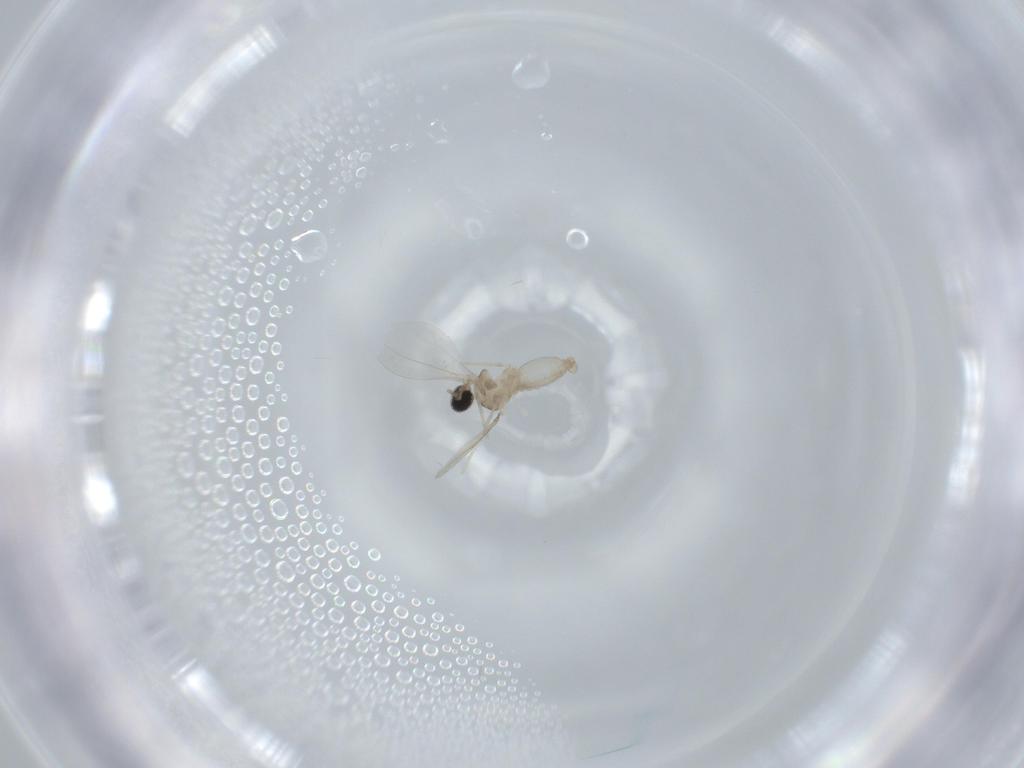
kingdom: Animalia
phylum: Arthropoda
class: Insecta
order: Diptera
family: Cecidomyiidae
